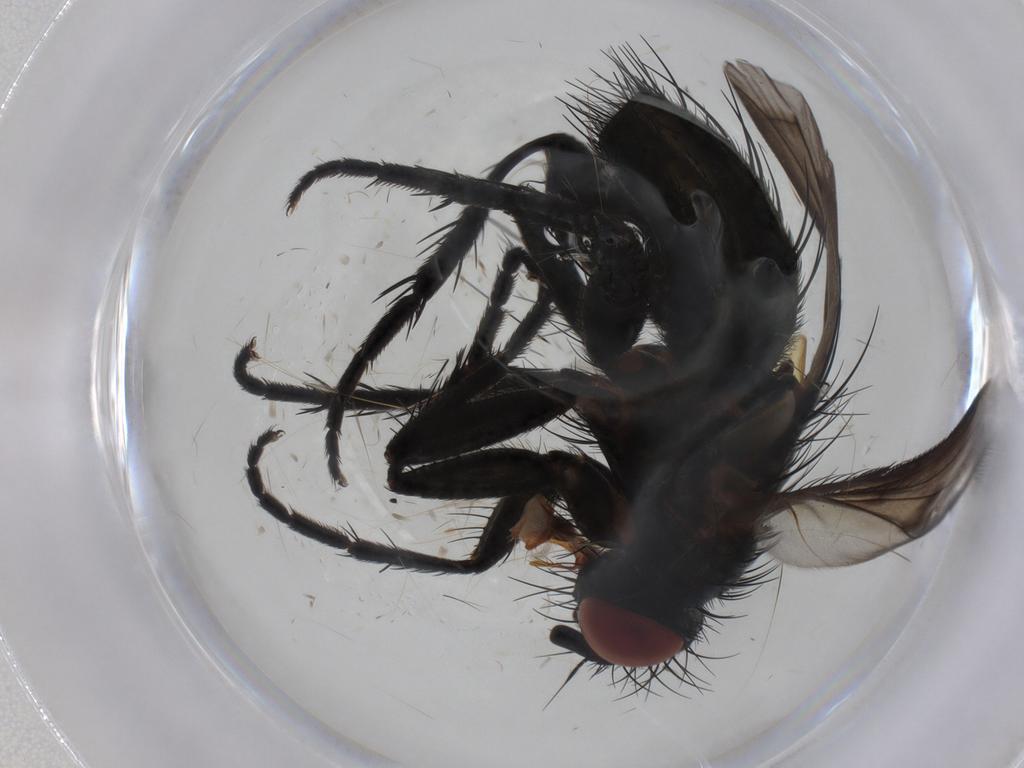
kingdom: Animalia
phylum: Arthropoda
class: Insecta
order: Diptera
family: Tachinidae
